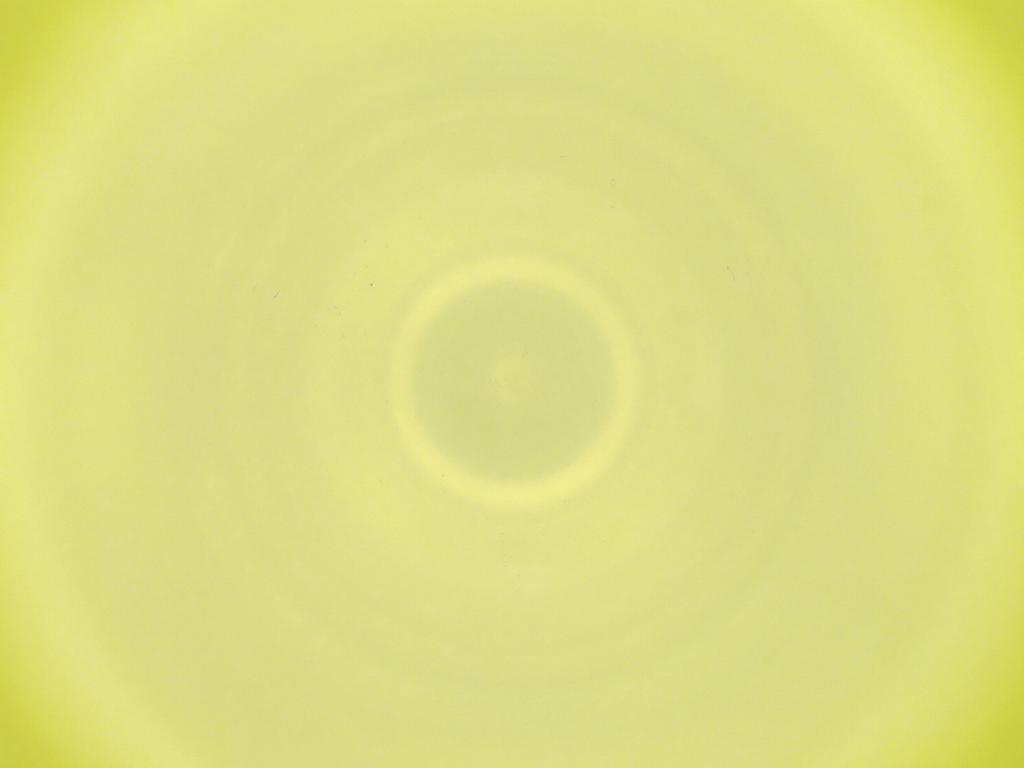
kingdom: Animalia
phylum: Arthropoda
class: Insecta
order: Diptera
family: Cecidomyiidae
